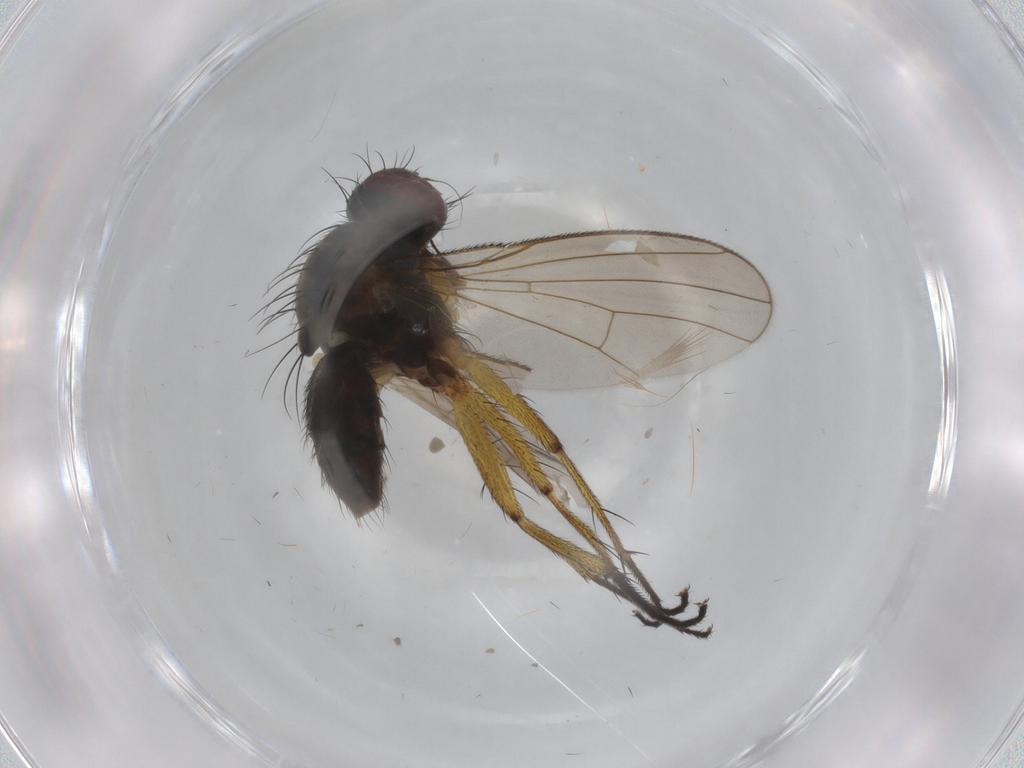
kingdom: Animalia
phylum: Arthropoda
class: Insecta
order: Diptera
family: Muscidae
